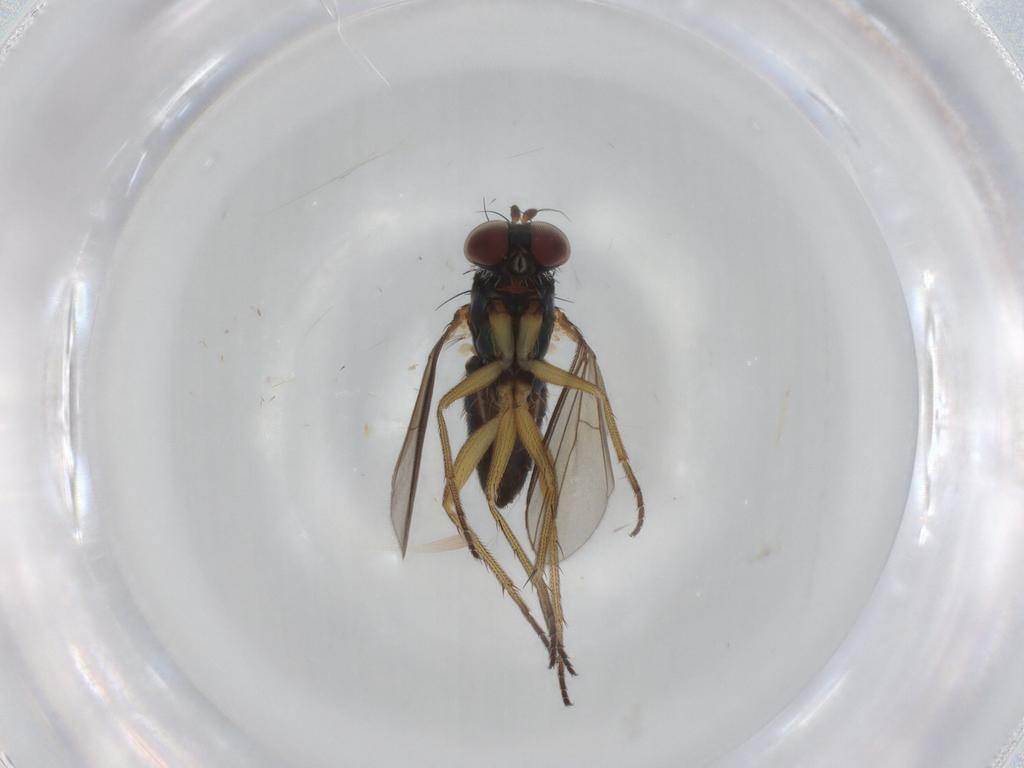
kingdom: Animalia
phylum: Arthropoda
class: Insecta
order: Diptera
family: Dolichopodidae
